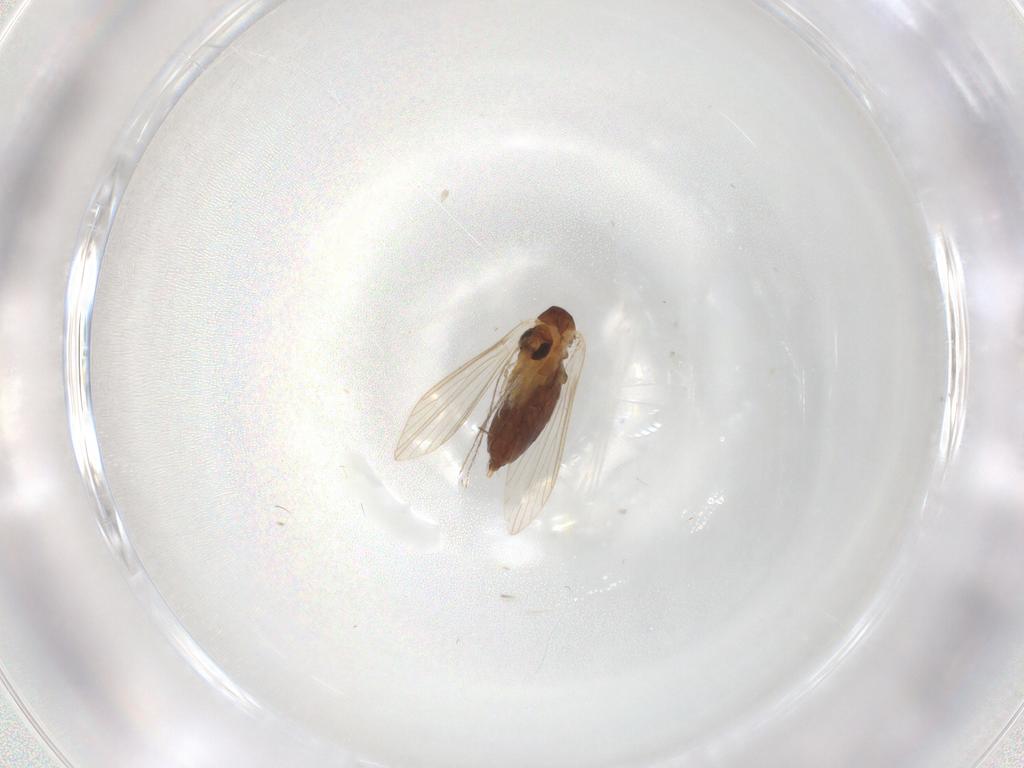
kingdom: Animalia
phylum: Arthropoda
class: Insecta
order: Diptera
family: Psychodidae
